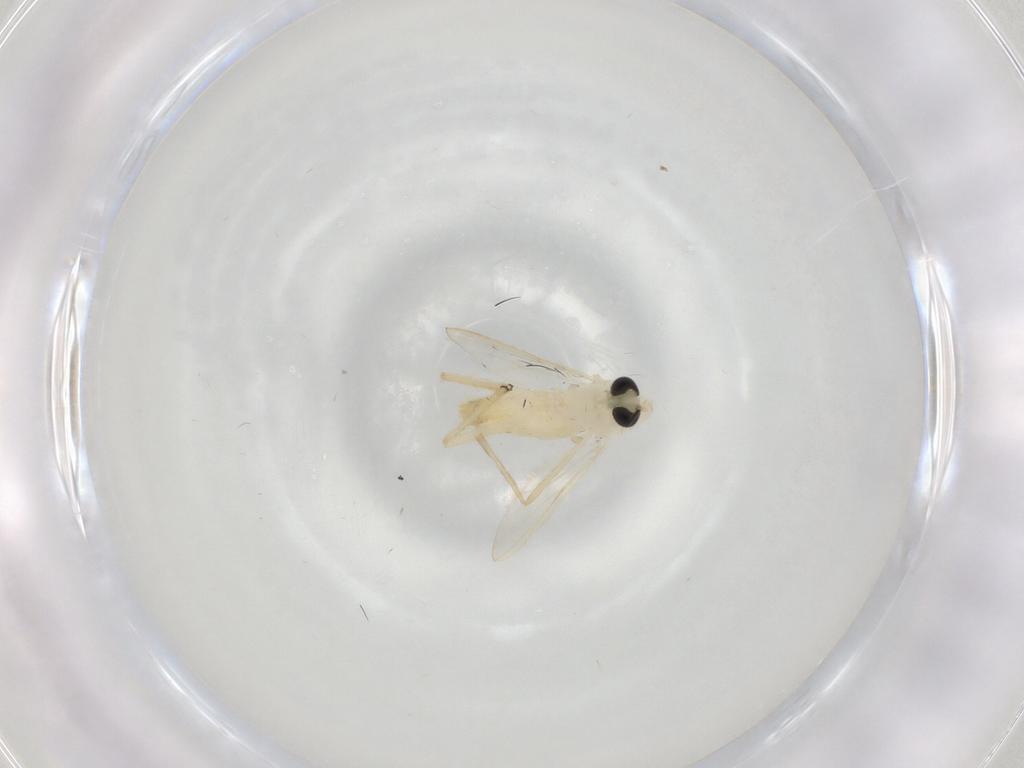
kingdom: Animalia
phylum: Arthropoda
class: Insecta
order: Diptera
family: Chironomidae
